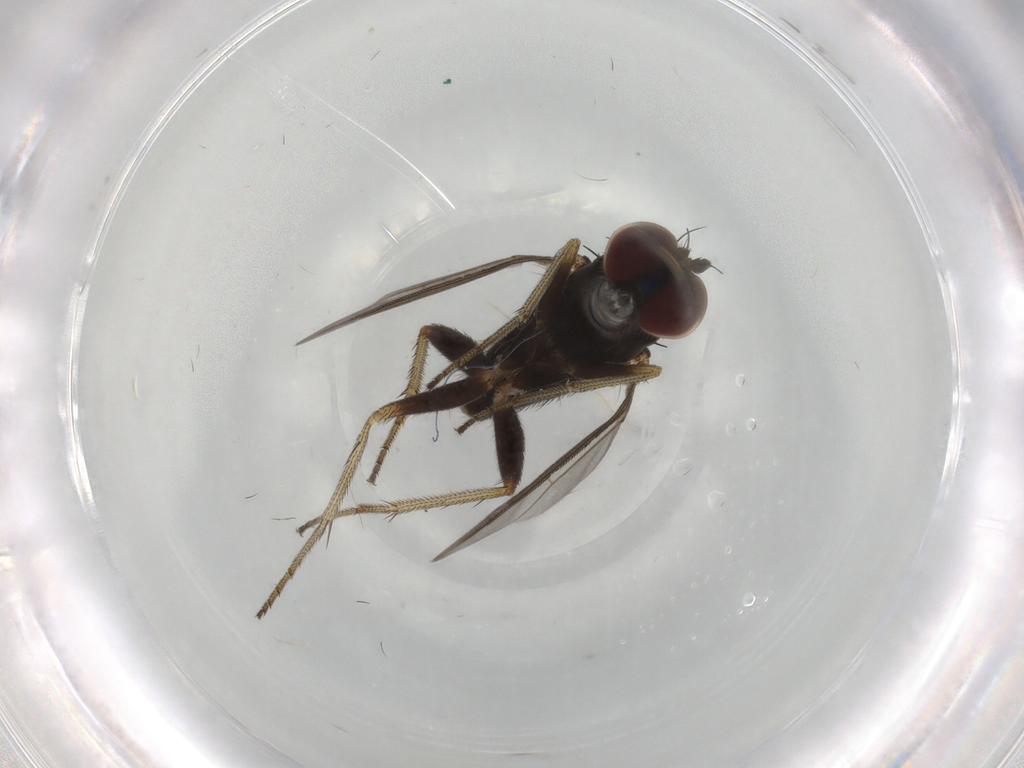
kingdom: Animalia
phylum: Arthropoda
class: Insecta
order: Diptera
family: Dolichopodidae
